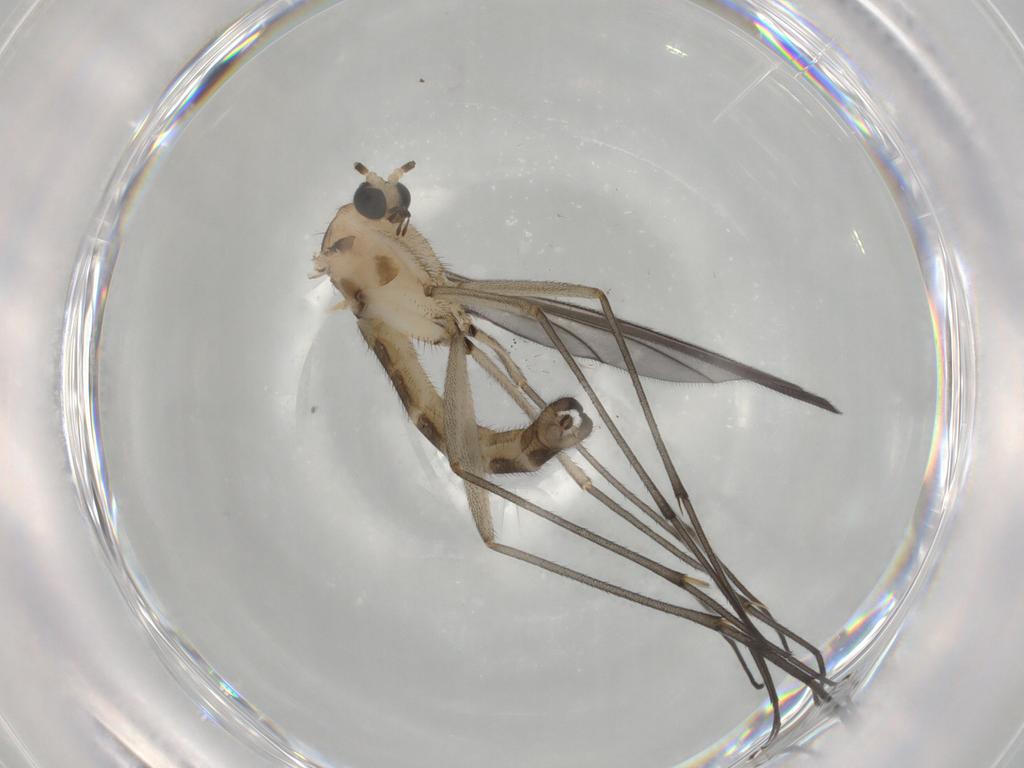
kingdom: Animalia
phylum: Arthropoda
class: Insecta
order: Diptera
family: Sciaridae
